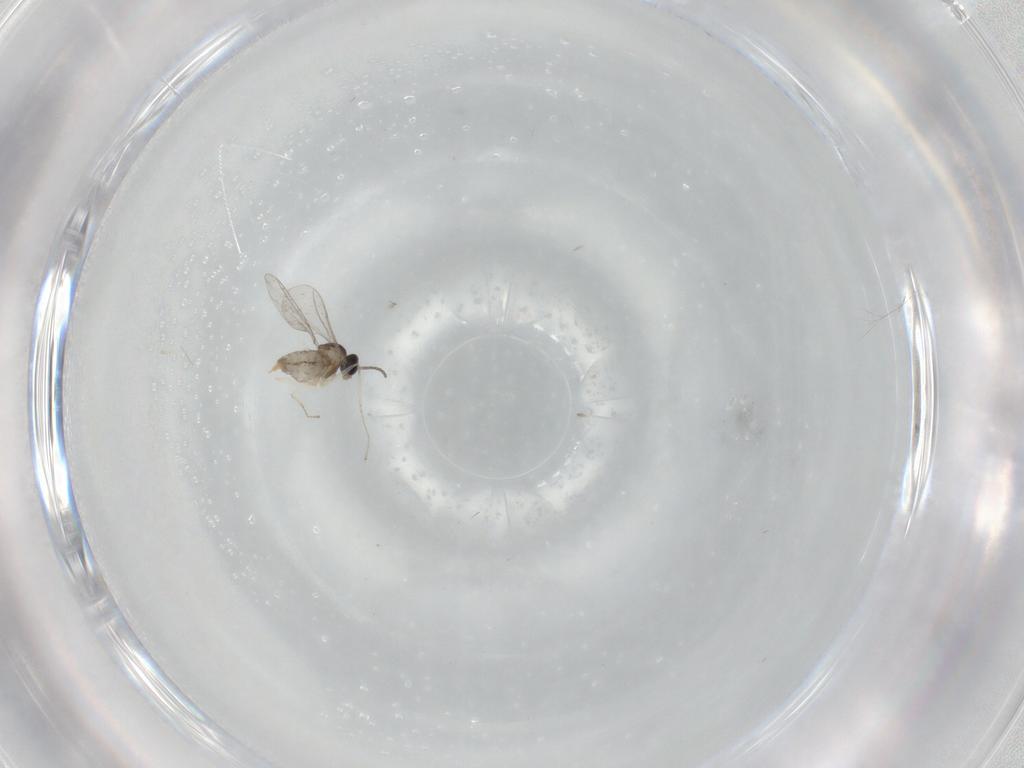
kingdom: Animalia
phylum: Arthropoda
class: Insecta
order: Diptera
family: Cecidomyiidae
